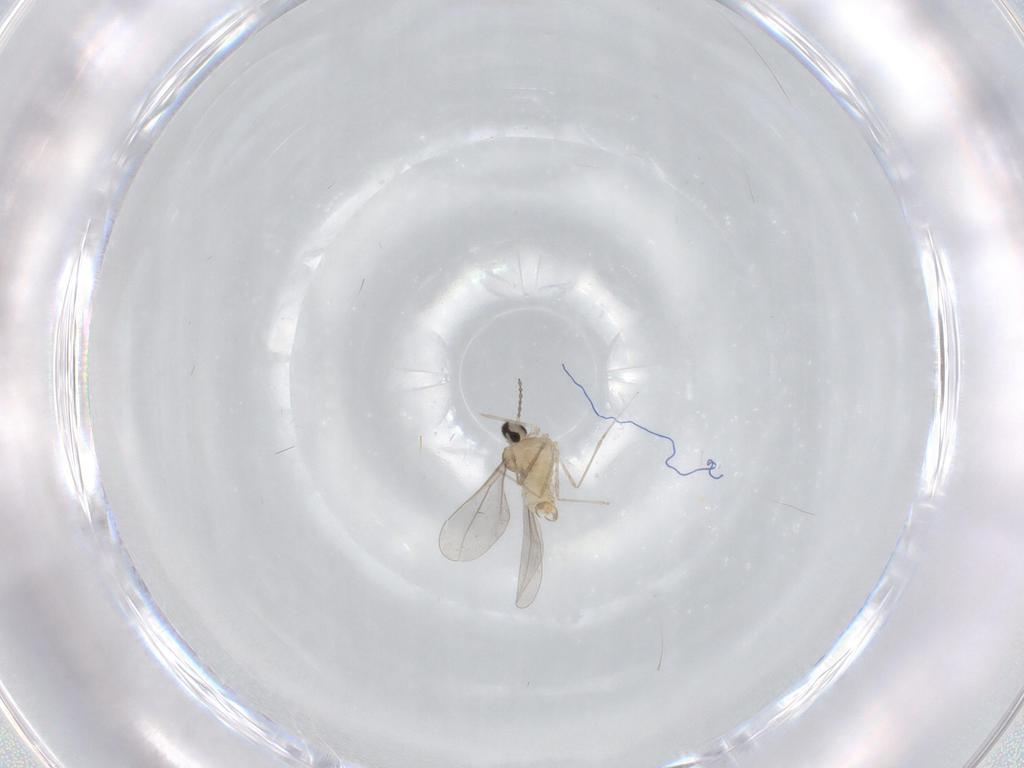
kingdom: Animalia
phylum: Arthropoda
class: Insecta
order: Diptera
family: Cecidomyiidae
